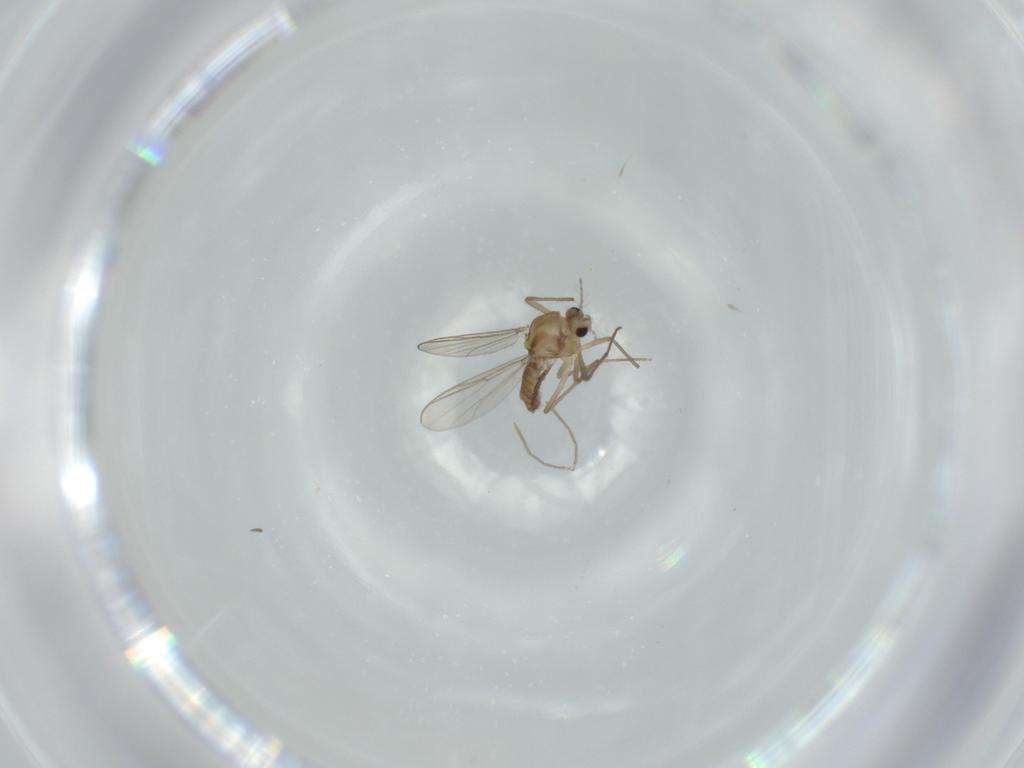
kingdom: Animalia
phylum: Arthropoda
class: Insecta
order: Diptera
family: Chironomidae
